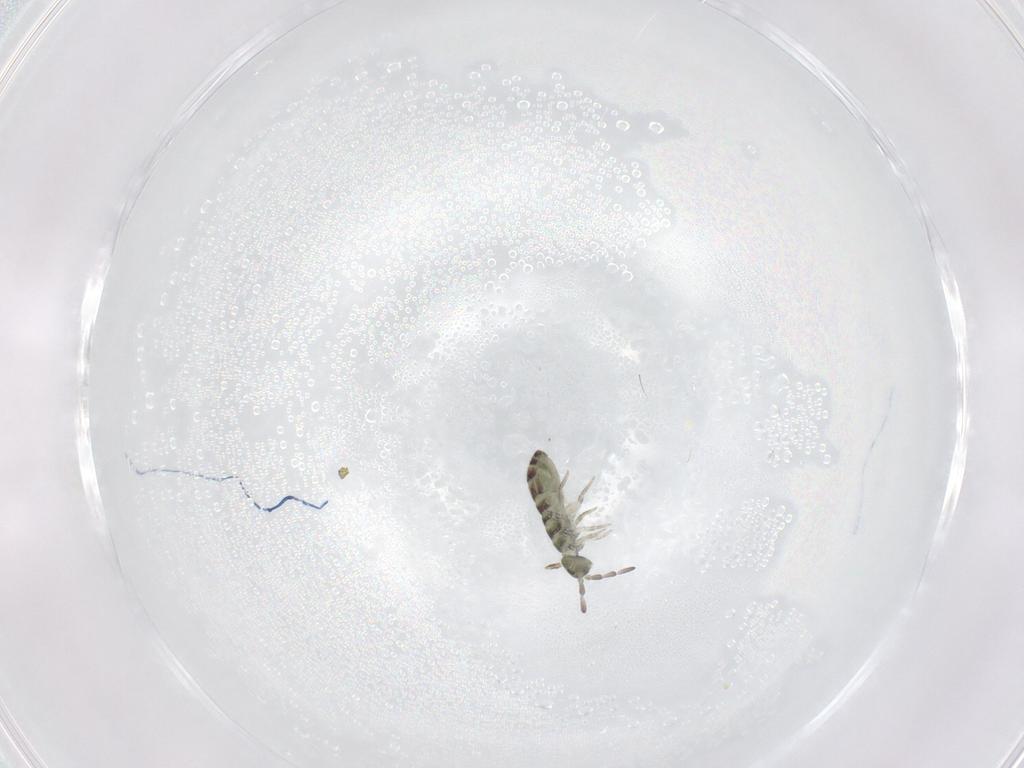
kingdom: Animalia
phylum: Arthropoda
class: Collembola
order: Entomobryomorpha
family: Isotomidae
